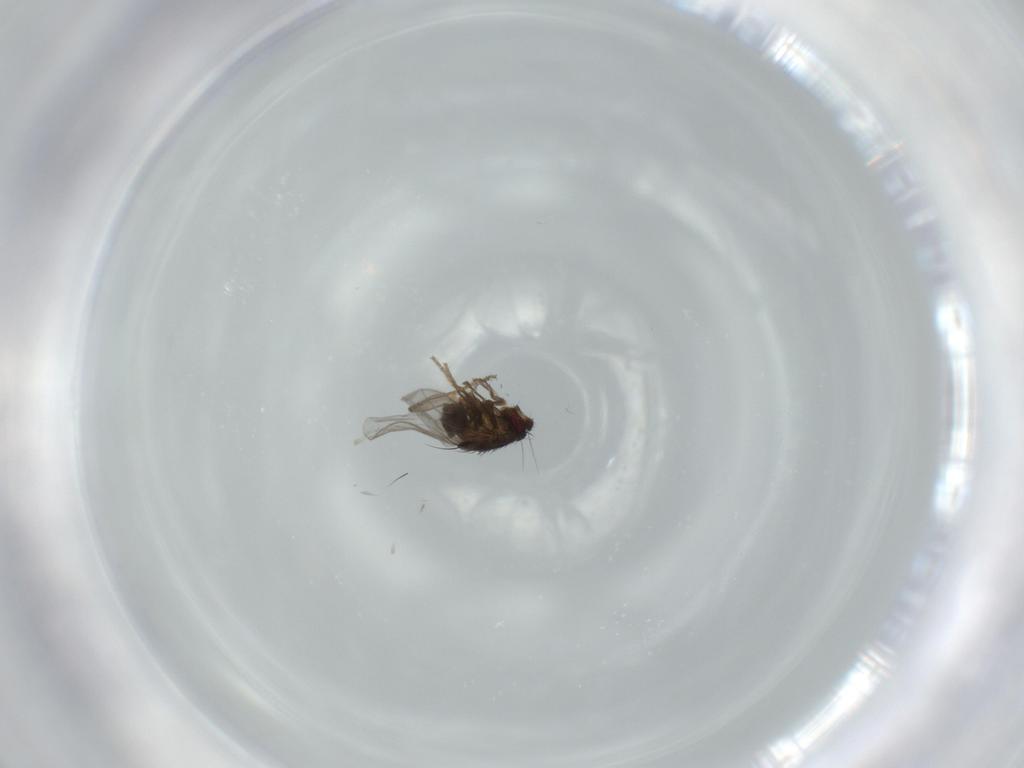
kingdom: Animalia
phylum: Arthropoda
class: Insecta
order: Diptera
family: Sphaeroceridae
